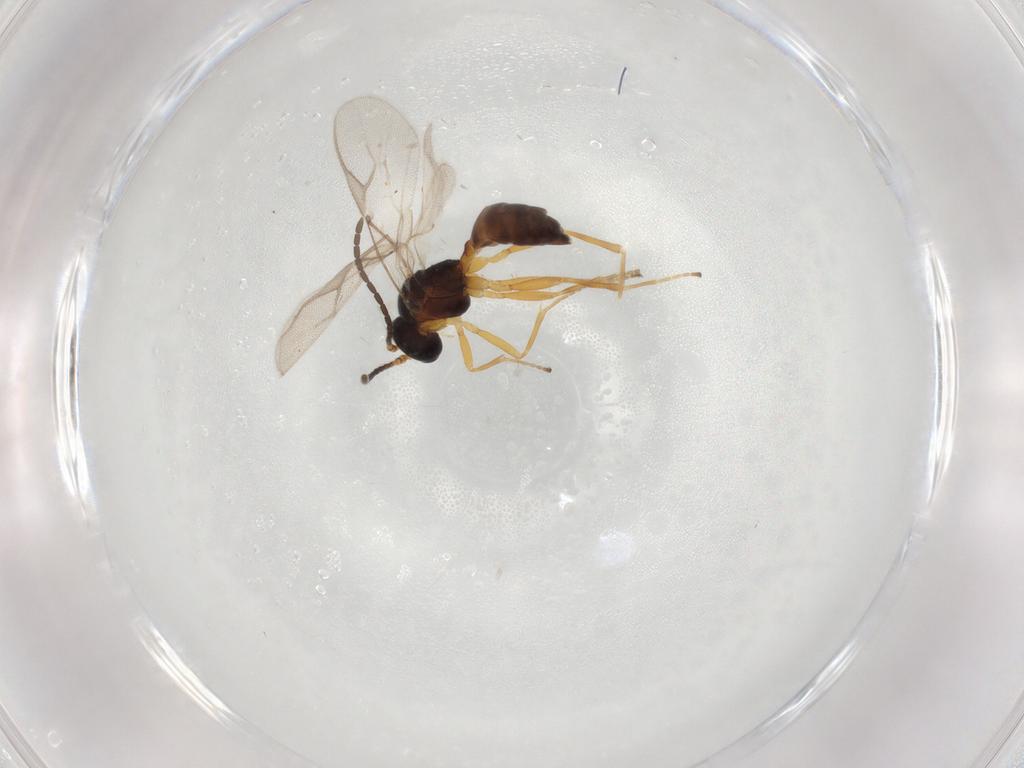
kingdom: Animalia
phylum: Arthropoda
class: Insecta
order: Hymenoptera
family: Braconidae
